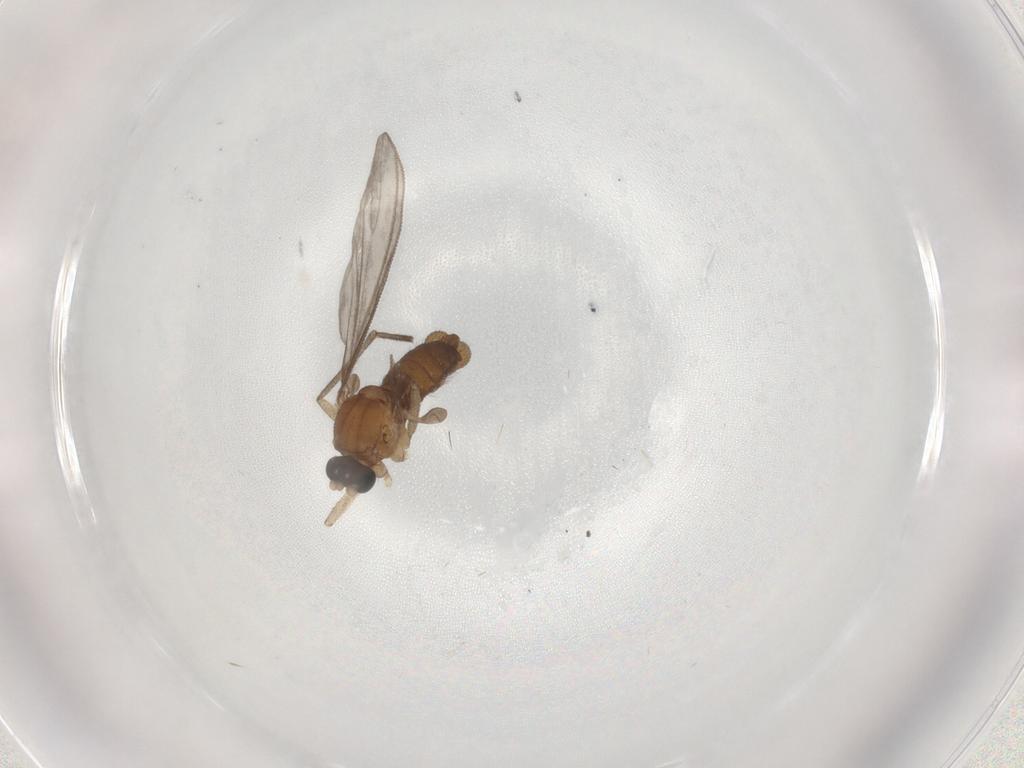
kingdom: Animalia
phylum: Arthropoda
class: Insecta
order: Diptera
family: Sciaridae
